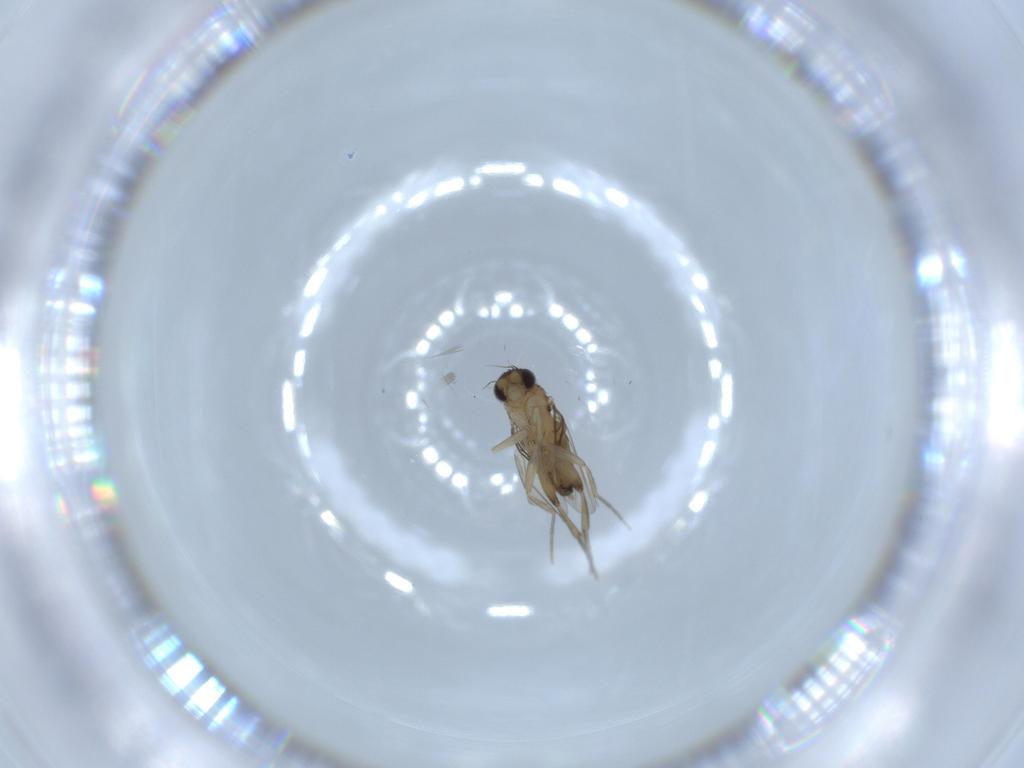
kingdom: Animalia
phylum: Arthropoda
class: Insecta
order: Diptera
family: Phoridae
